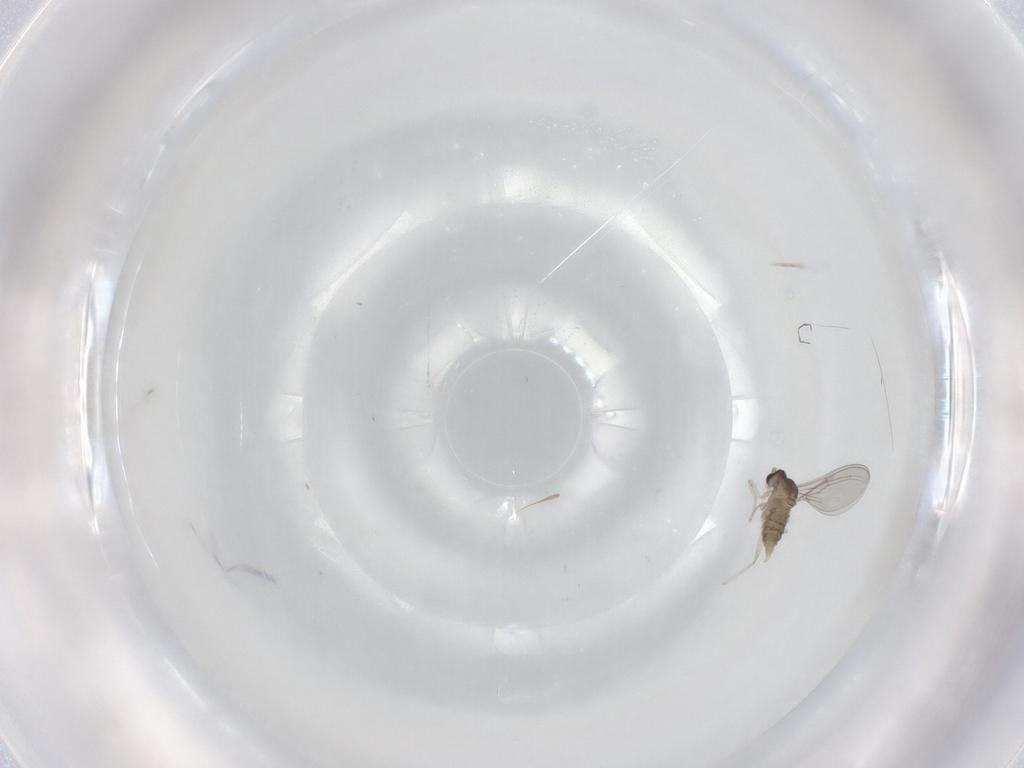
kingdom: Animalia
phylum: Arthropoda
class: Insecta
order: Diptera
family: Cecidomyiidae
